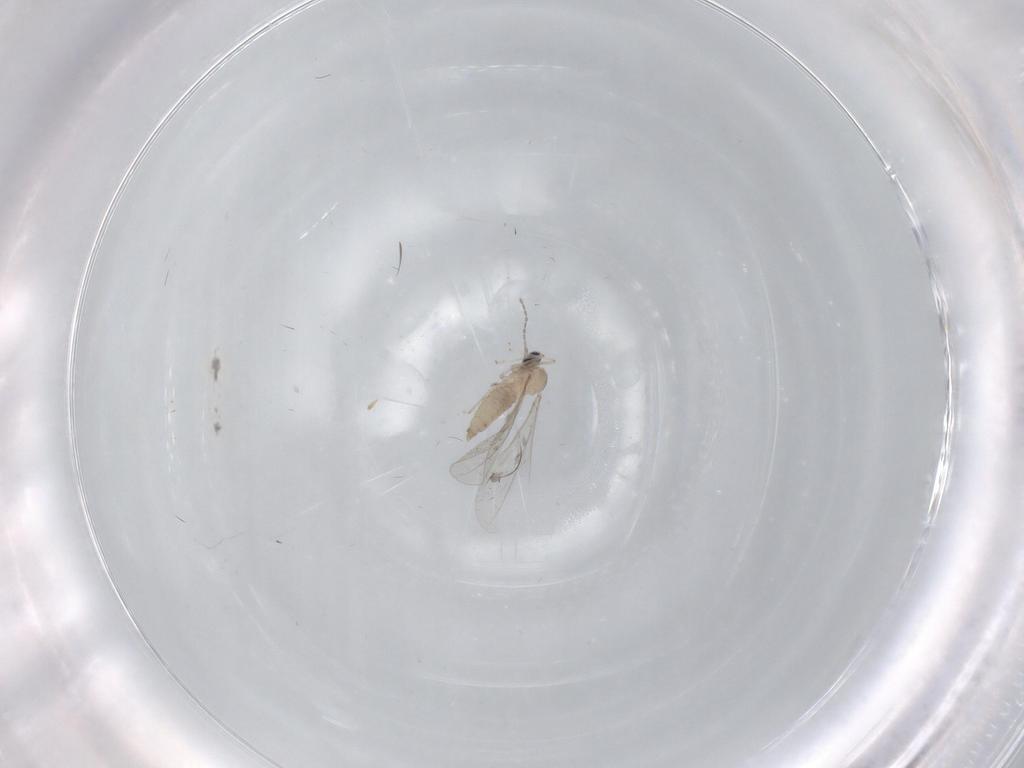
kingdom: Animalia
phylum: Arthropoda
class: Insecta
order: Diptera
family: Cecidomyiidae
